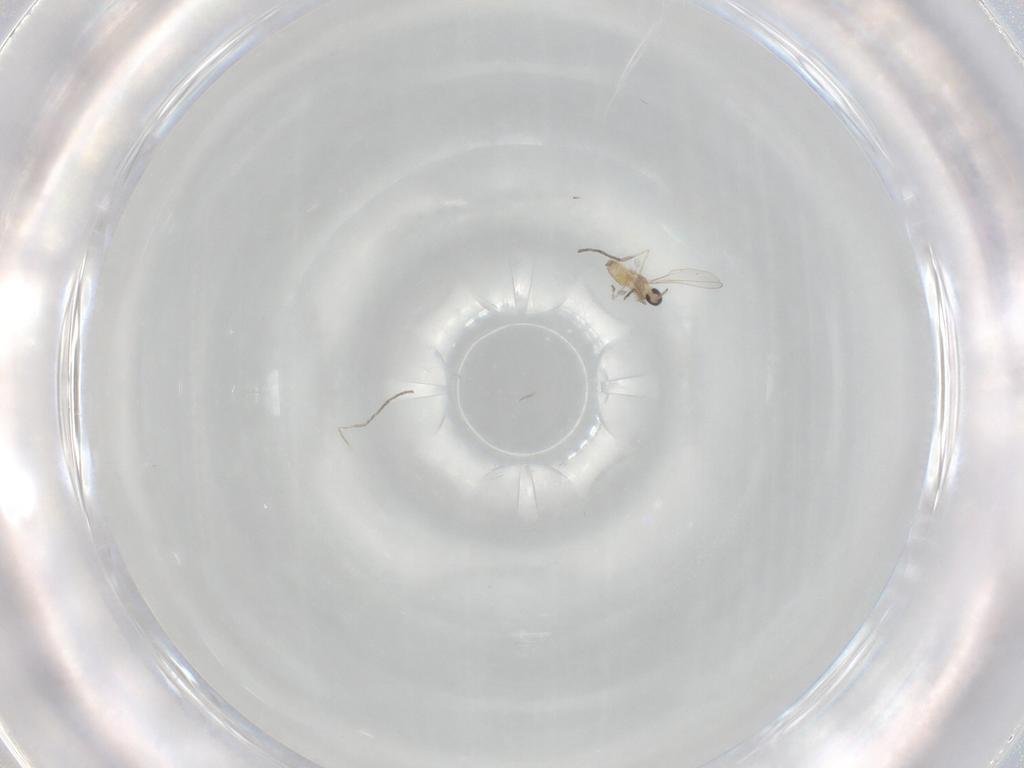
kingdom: Animalia
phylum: Arthropoda
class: Insecta
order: Diptera
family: Cecidomyiidae
